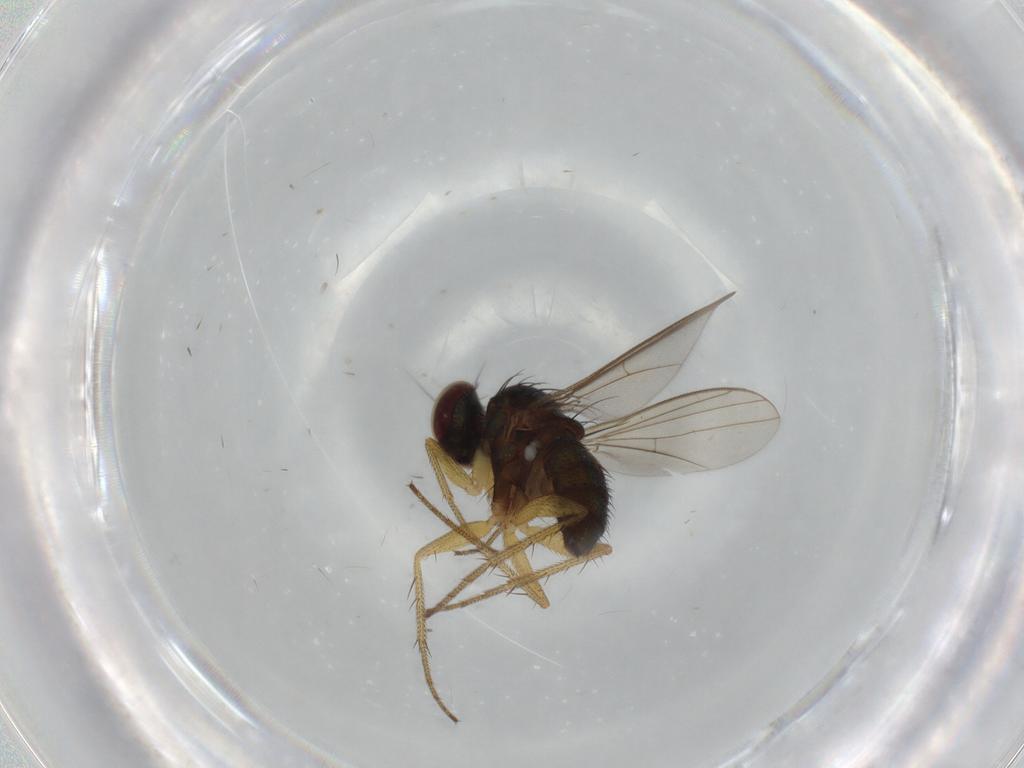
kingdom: Animalia
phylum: Arthropoda
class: Insecta
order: Diptera
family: Dolichopodidae
